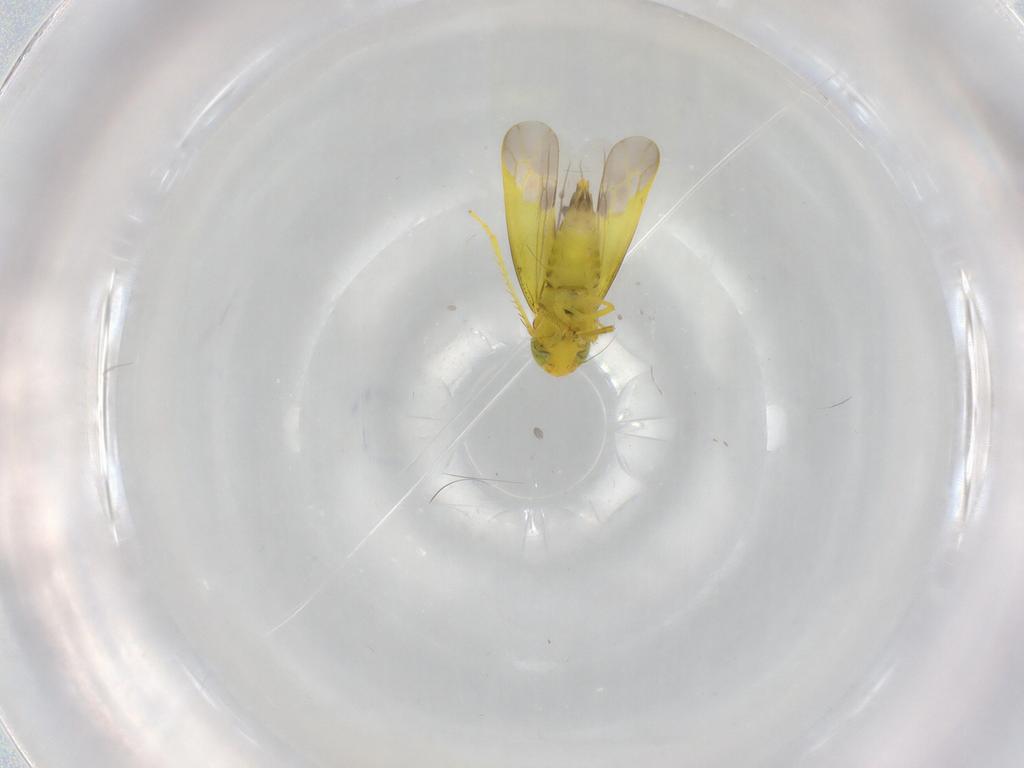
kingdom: Animalia
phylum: Arthropoda
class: Insecta
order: Hemiptera
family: Cicadellidae
